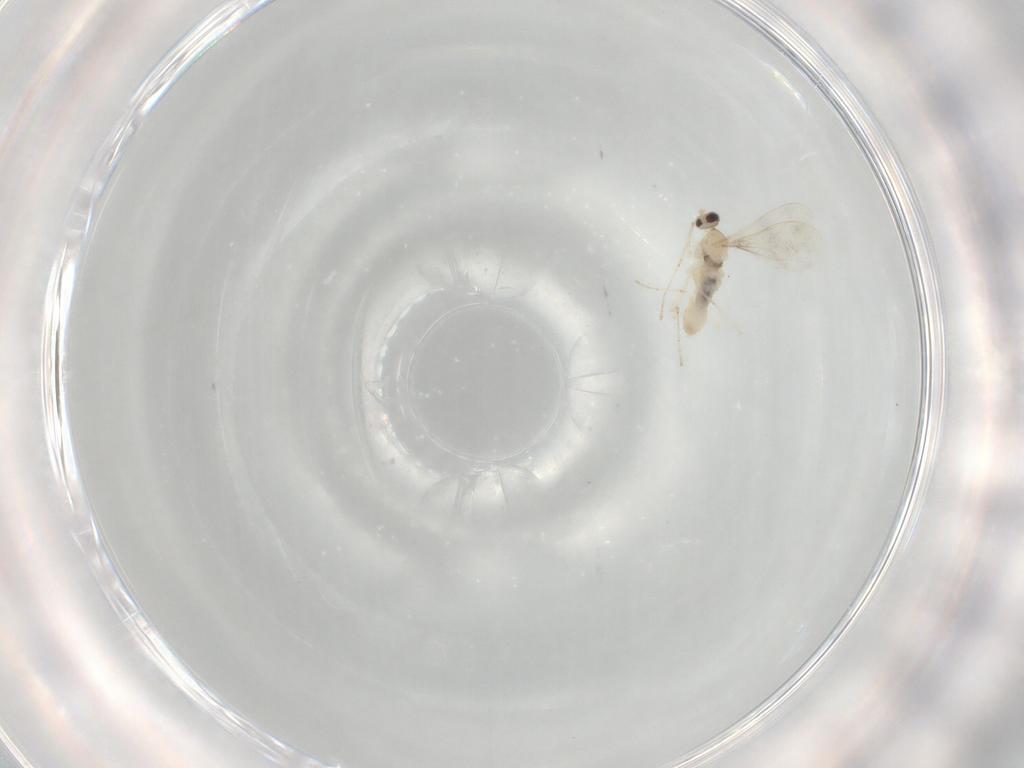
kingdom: Animalia
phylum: Arthropoda
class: Insecta
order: Diptera
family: Cecidomyiidae
